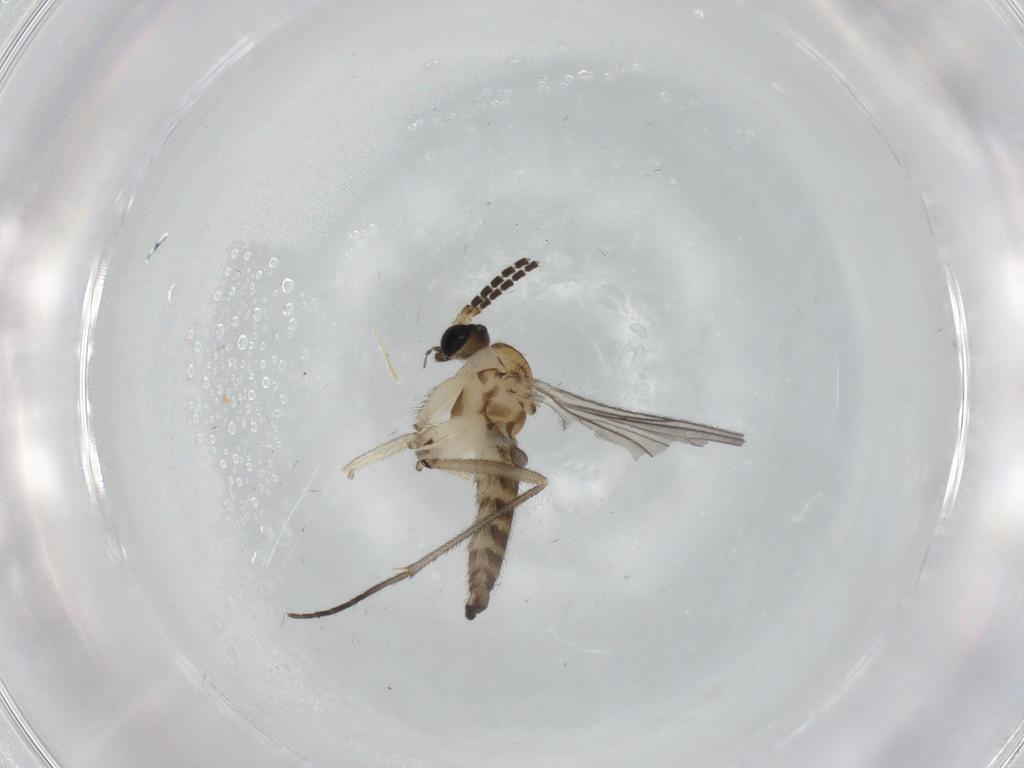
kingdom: Animalia
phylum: Arthropoda
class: Insecta
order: Diptera
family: Sciaridae
